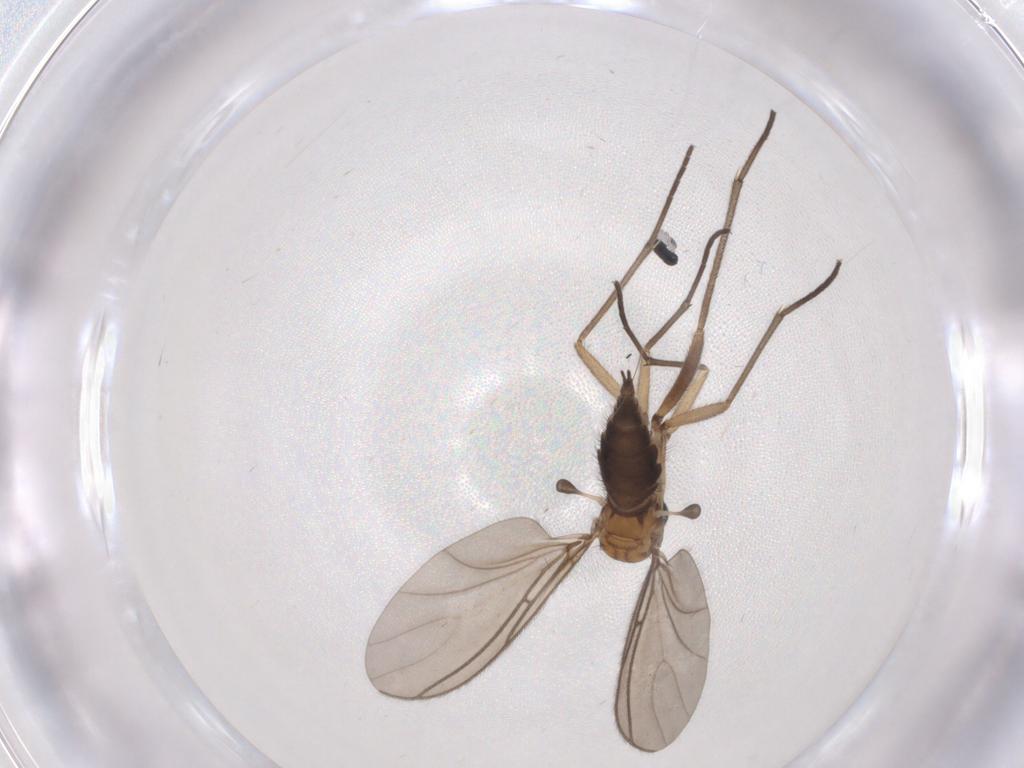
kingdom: Animalia
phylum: Arthropoda
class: Insecta
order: Diptera
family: Sciaridae
